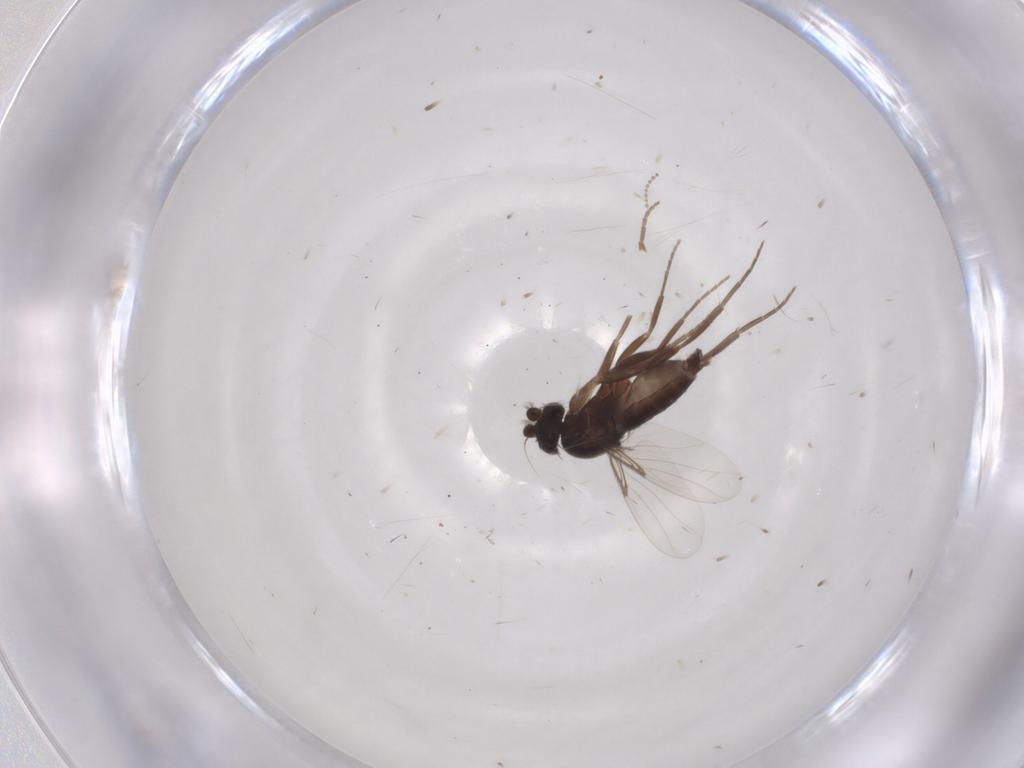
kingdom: Animalia
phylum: Arthropoda
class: Insecta
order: Diptera
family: Phoridae
